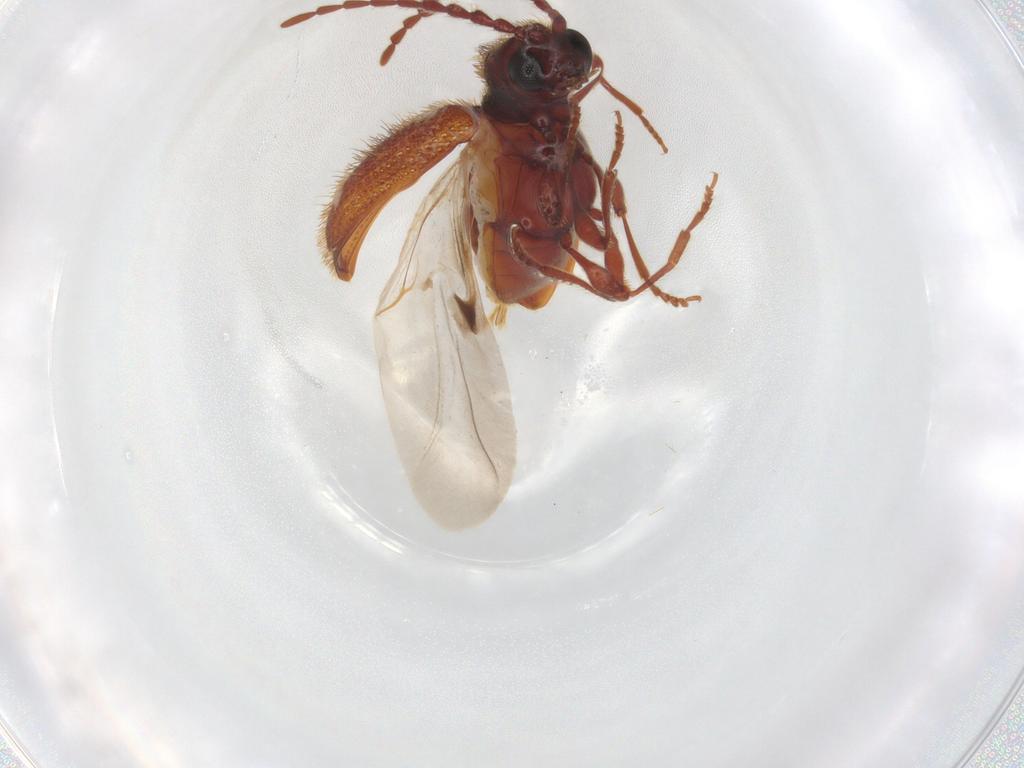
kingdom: Animalia
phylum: Arthropoda
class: Insecta
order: Coleoptera
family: Ptinidae
